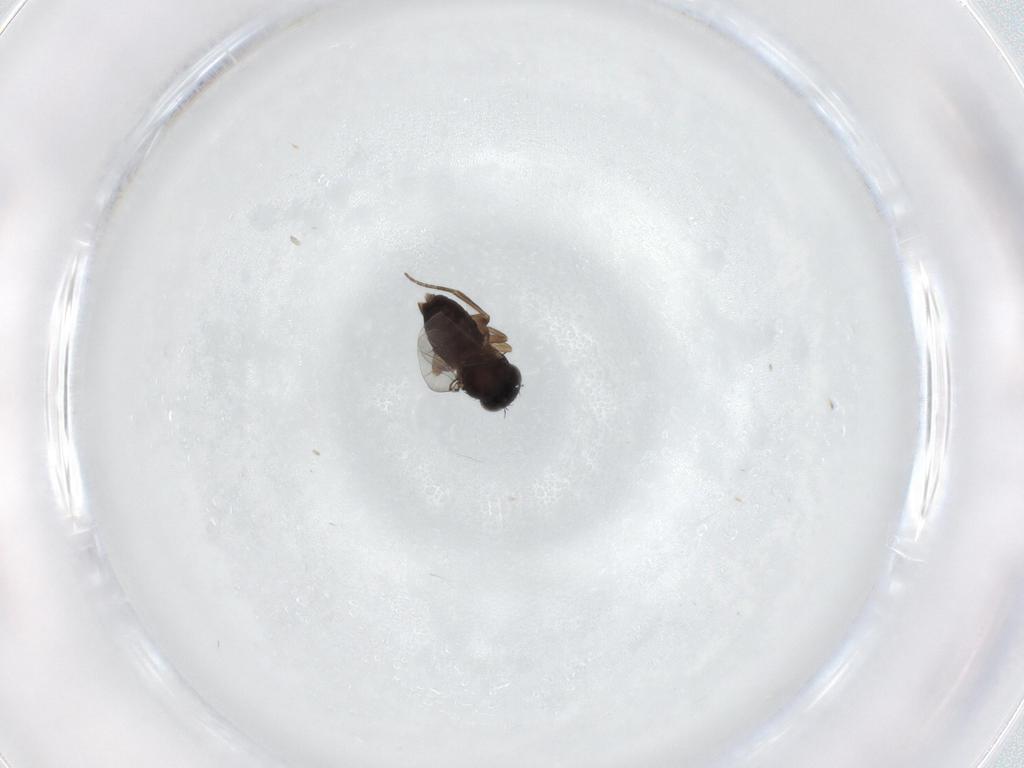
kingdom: Animalia
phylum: Arthropoda
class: Insecta
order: Diptera
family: Phoridae
